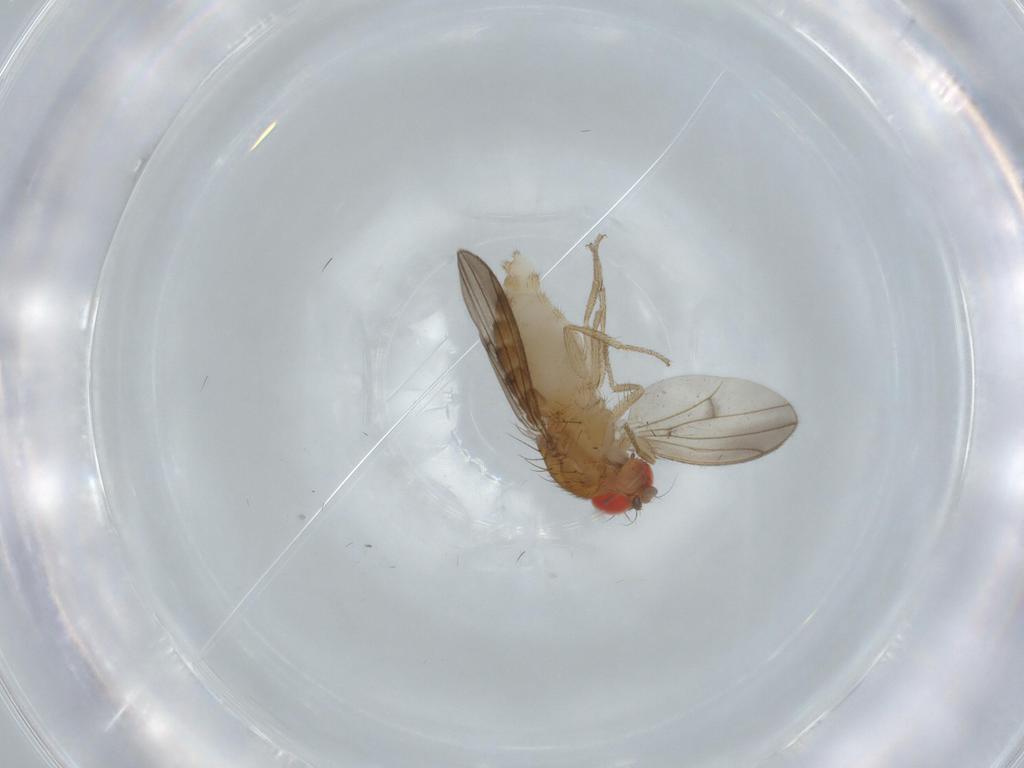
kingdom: Animalia
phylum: Arthropoda
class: Insecta
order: Diptera
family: Drosophilidae
